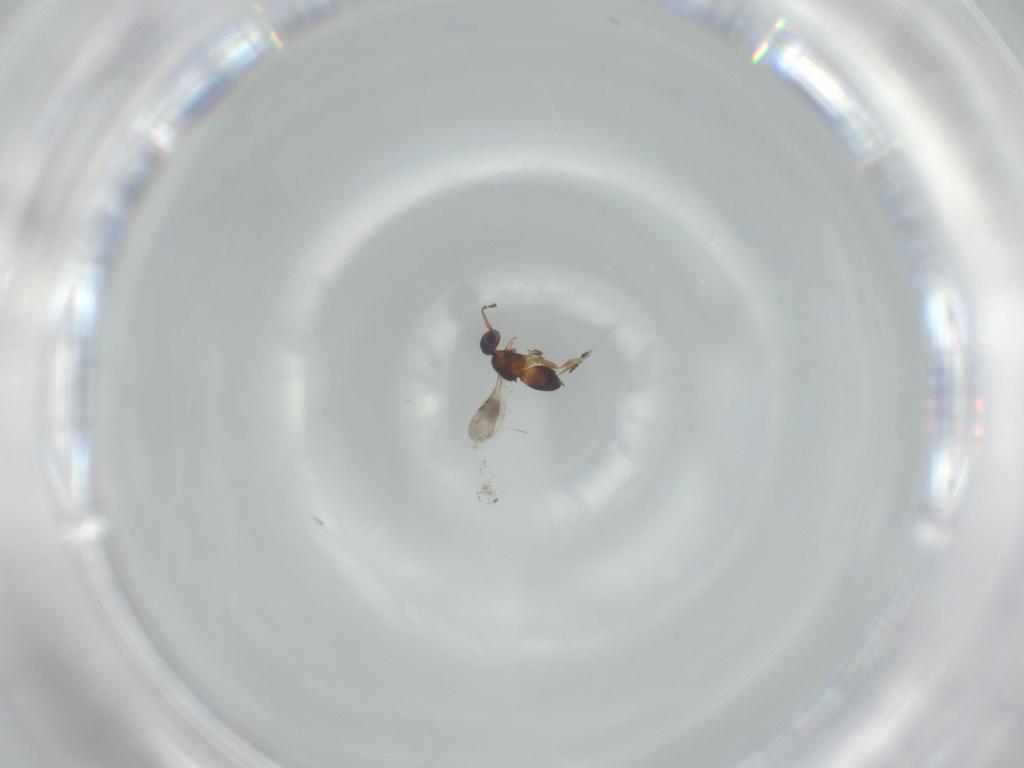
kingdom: Animalia
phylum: Arthropoda
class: Insecta
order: Hymenoptera
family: Ceraphronidae
